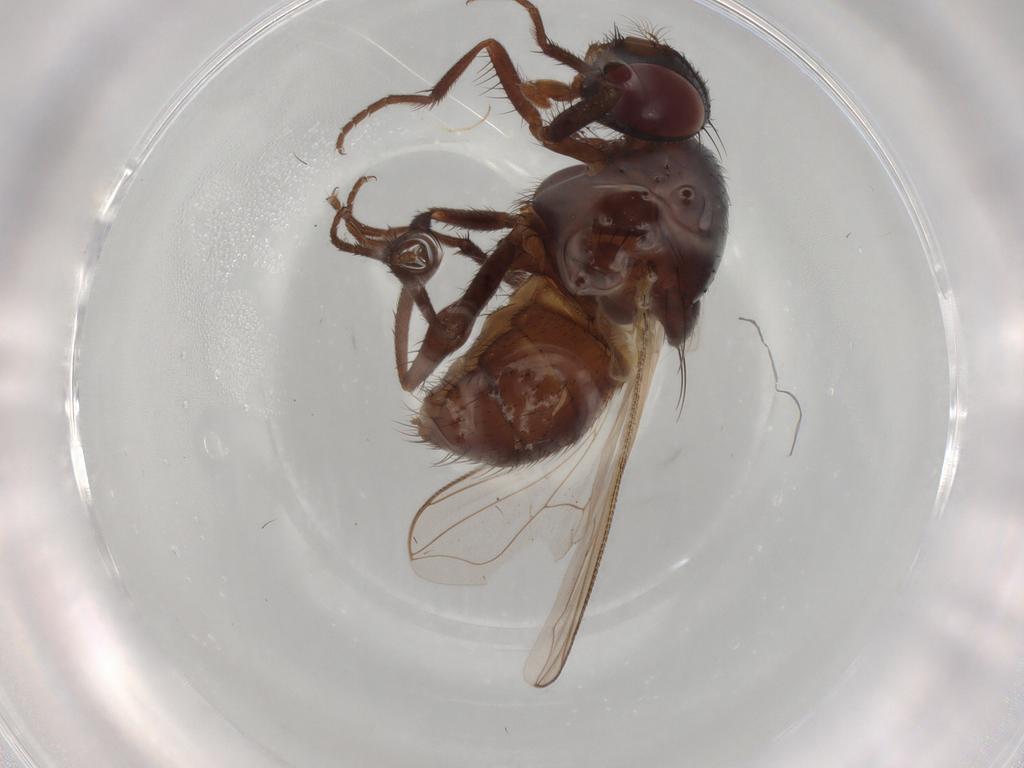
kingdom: Animalia
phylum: Arthropoda
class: Insecta
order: Diptera
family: Muscidae
